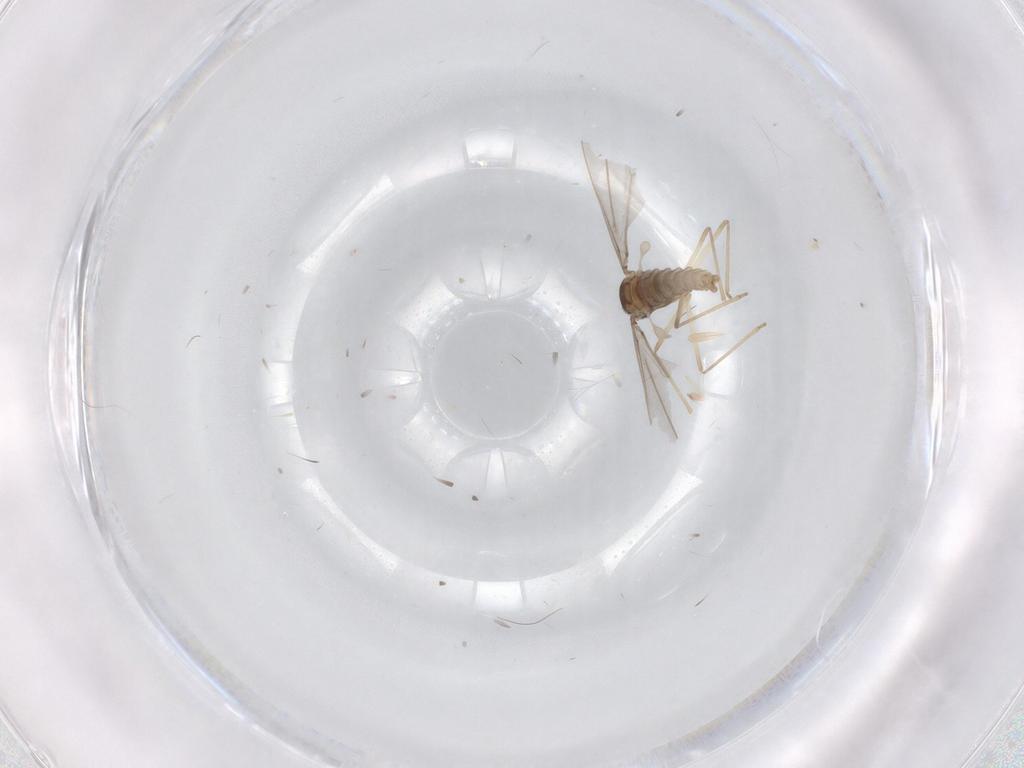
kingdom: Animalia
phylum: Arthropoda
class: Insecta
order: Diptera
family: Cecidomyiidae
